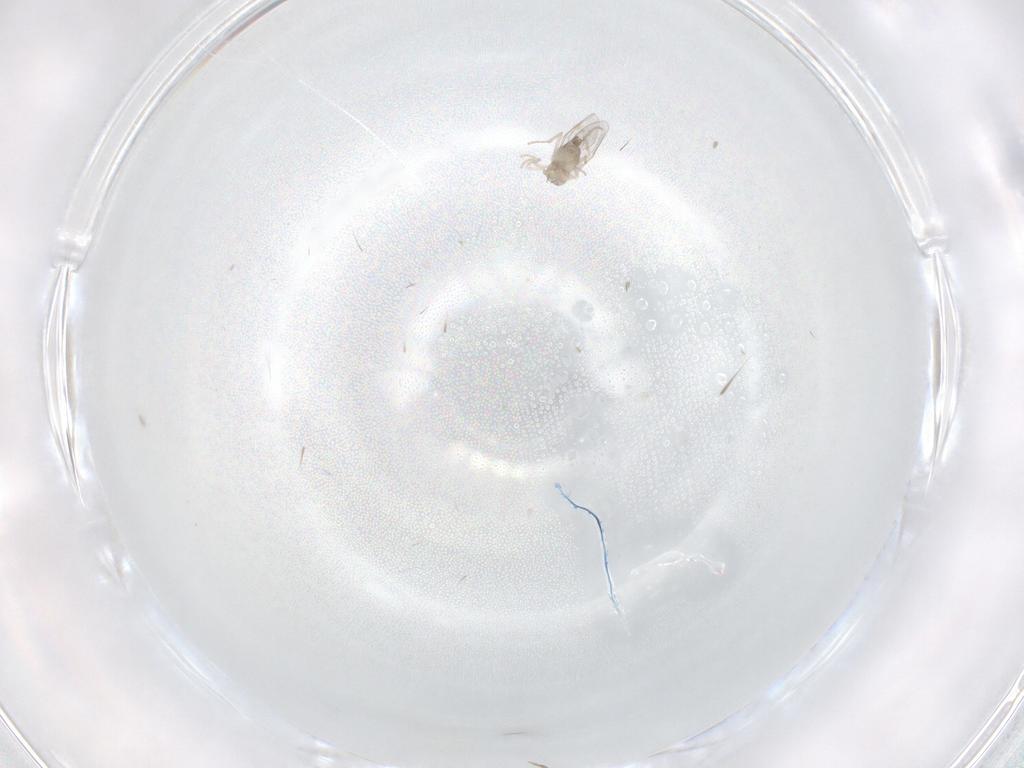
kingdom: Animalia
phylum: Arthropoda
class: Insecta
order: Diptera
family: Cecidomyiidae
